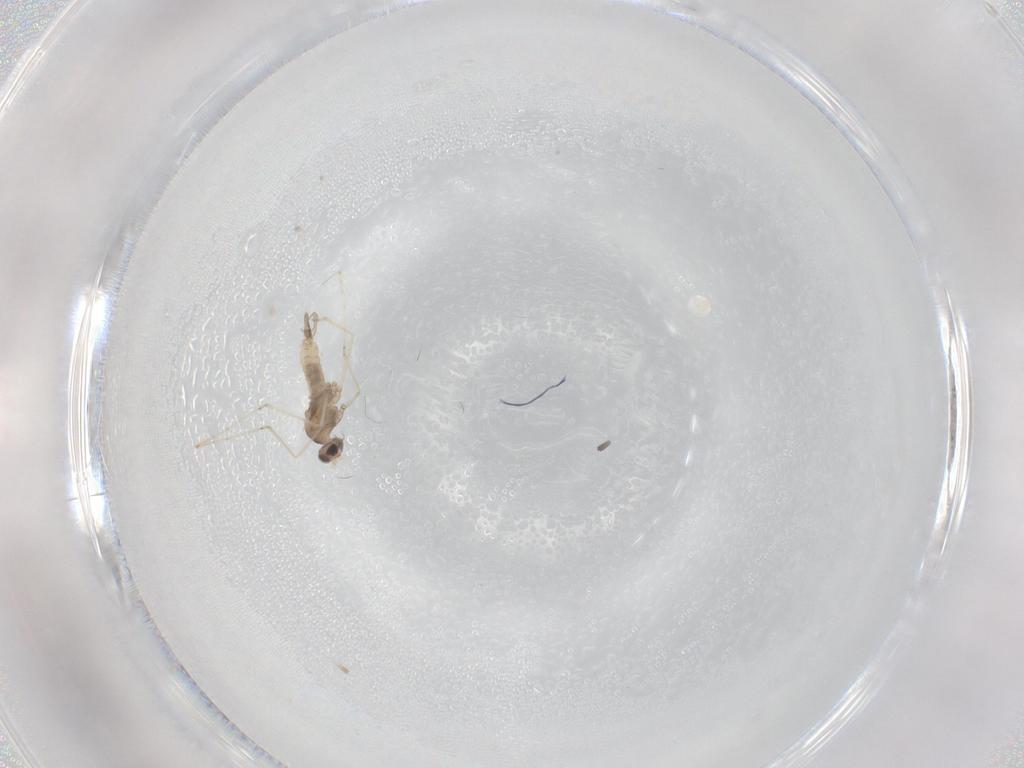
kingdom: Animalia
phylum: Arthropoda
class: Insecta
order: Diptera
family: Cecidomyiidae
